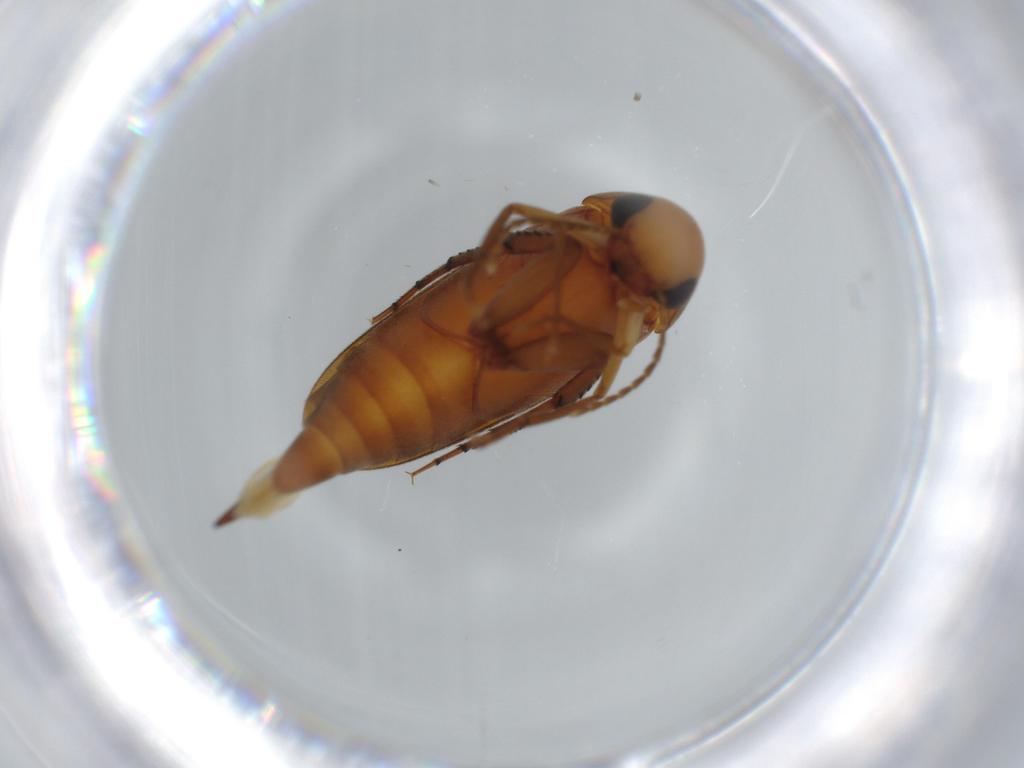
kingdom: Animalia
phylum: Arthropoda
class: Insecta
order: Coleoptera
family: Mordellidae
